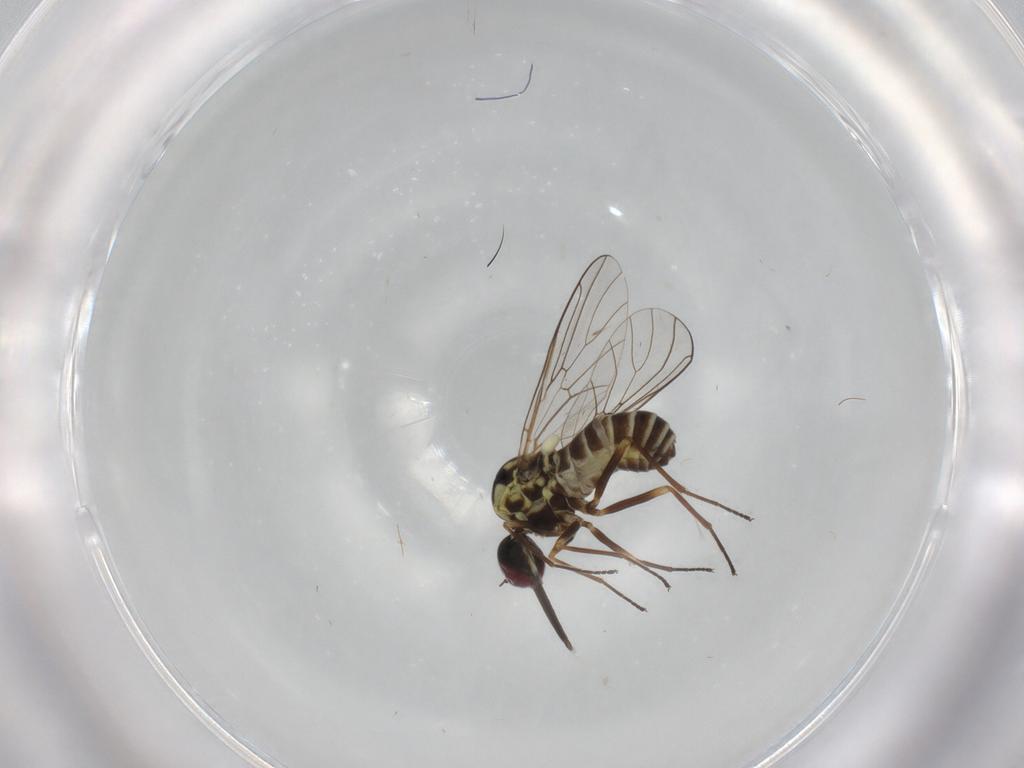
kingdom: Animalia
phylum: Arthropoda
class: Insecta
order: Diptera
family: Bombyliidae
